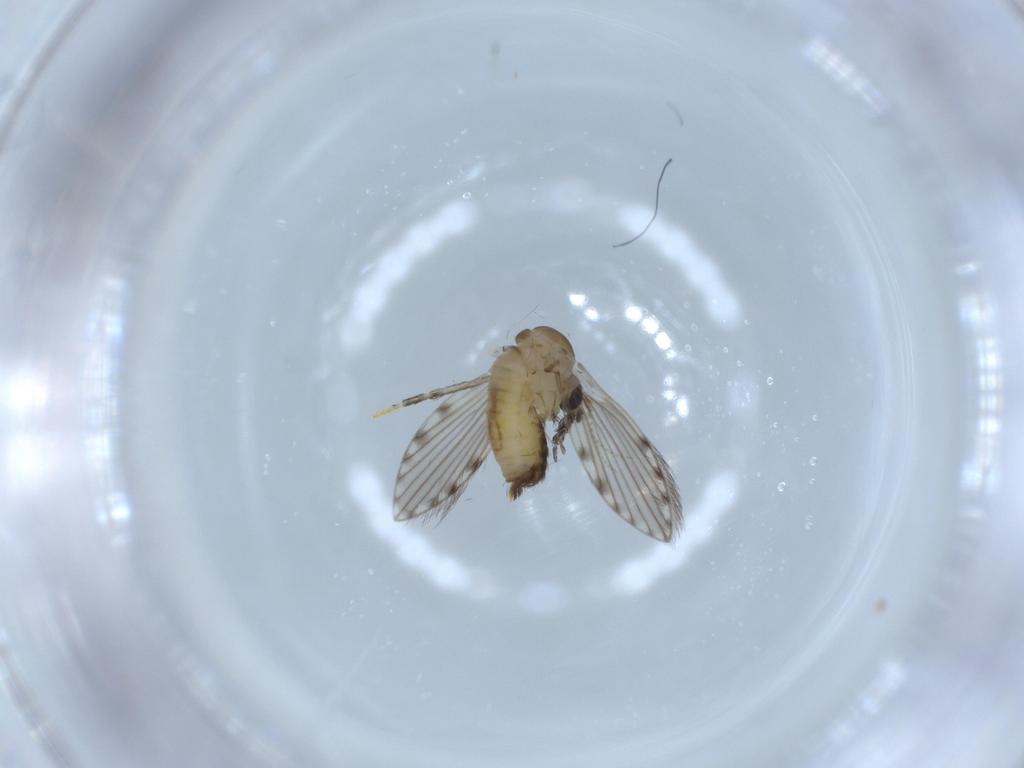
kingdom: Animalia
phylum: Arthropoda
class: Insecta
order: Diptera
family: Psychodidae
